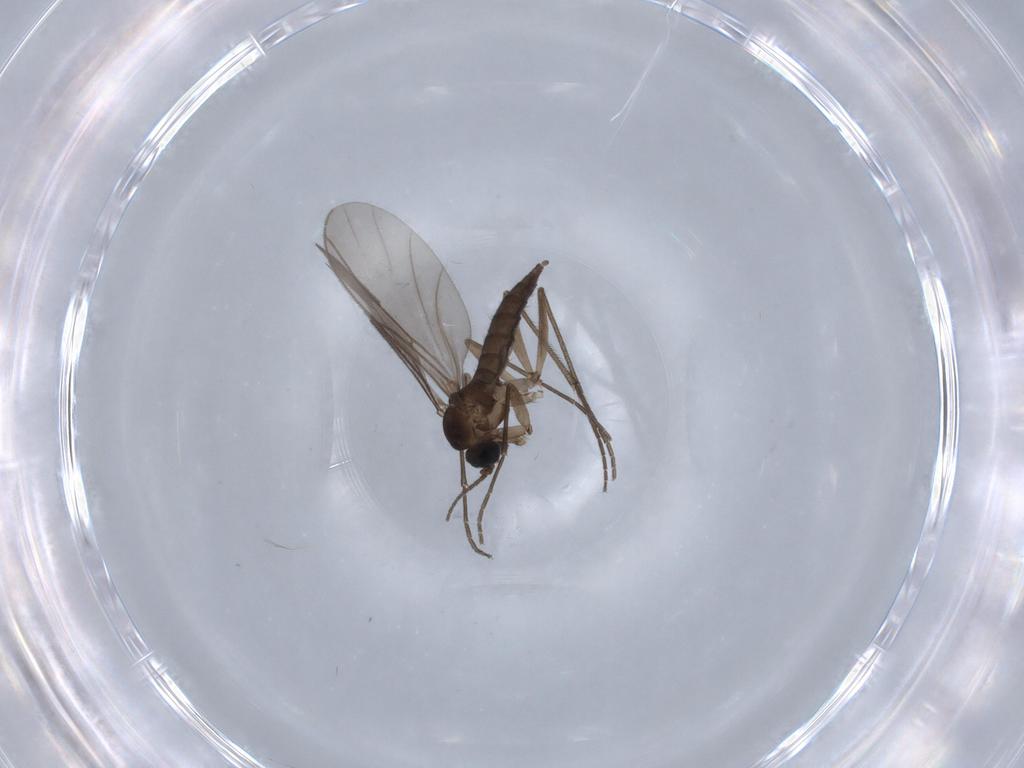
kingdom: Animalia
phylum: Arthropoda
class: Insecta
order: Diptera
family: Sciaridae
